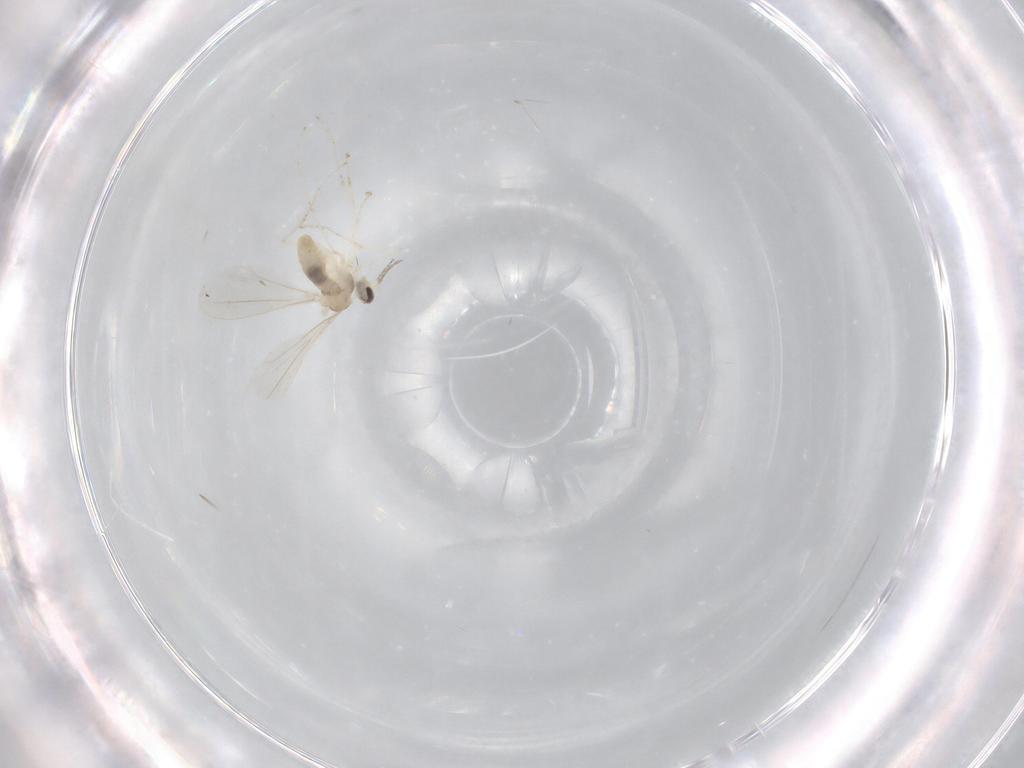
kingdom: Animalia
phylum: Arthropoda
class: Insecta
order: Diptera
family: Cecidomyiidae
